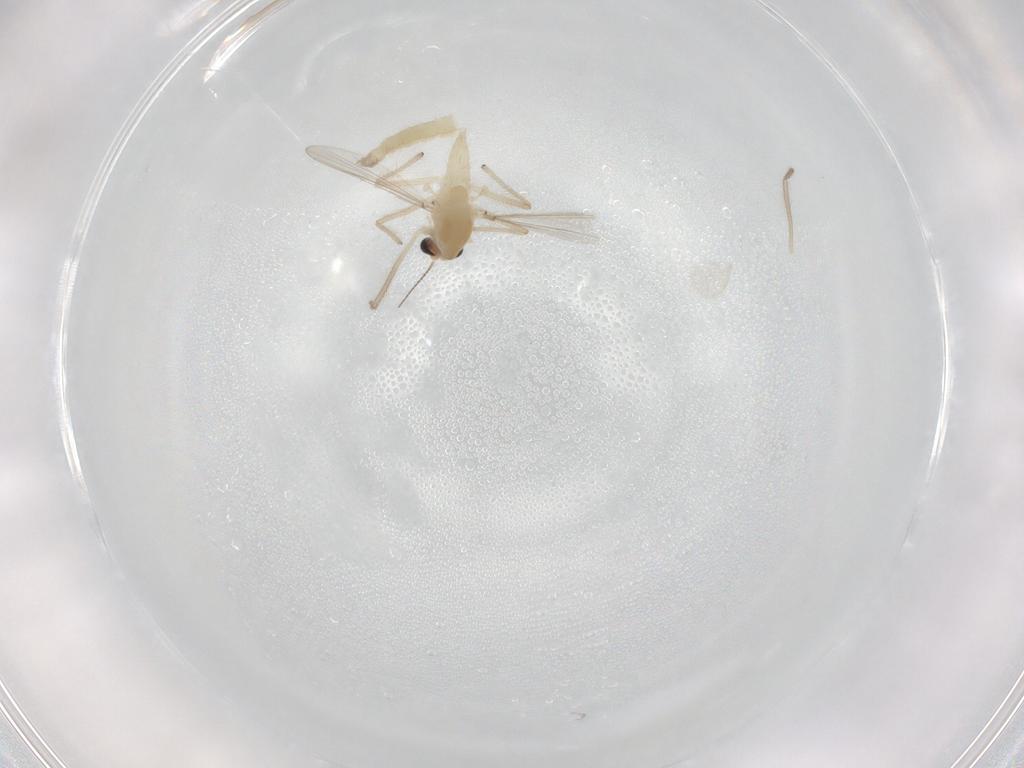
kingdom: Animalia
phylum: Arthropoda
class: Insecta
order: Diptera
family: Chironomidae
